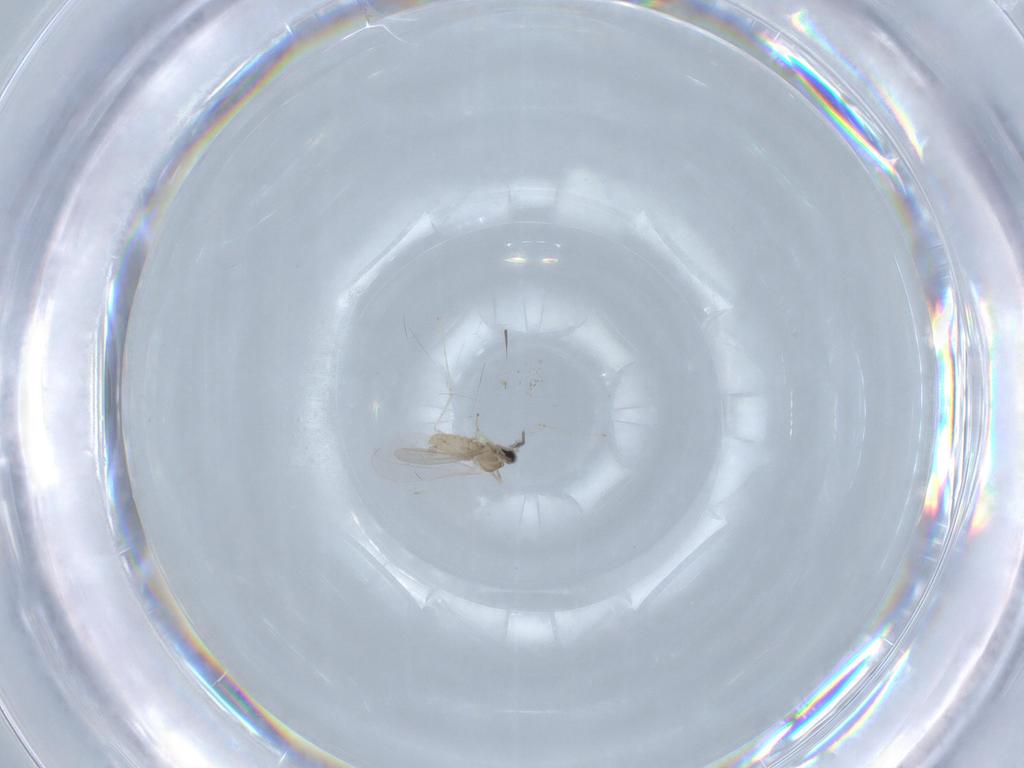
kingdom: Animalia
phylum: Arthropoda
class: Insecta
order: Diptera
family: Cecidomyiidae
